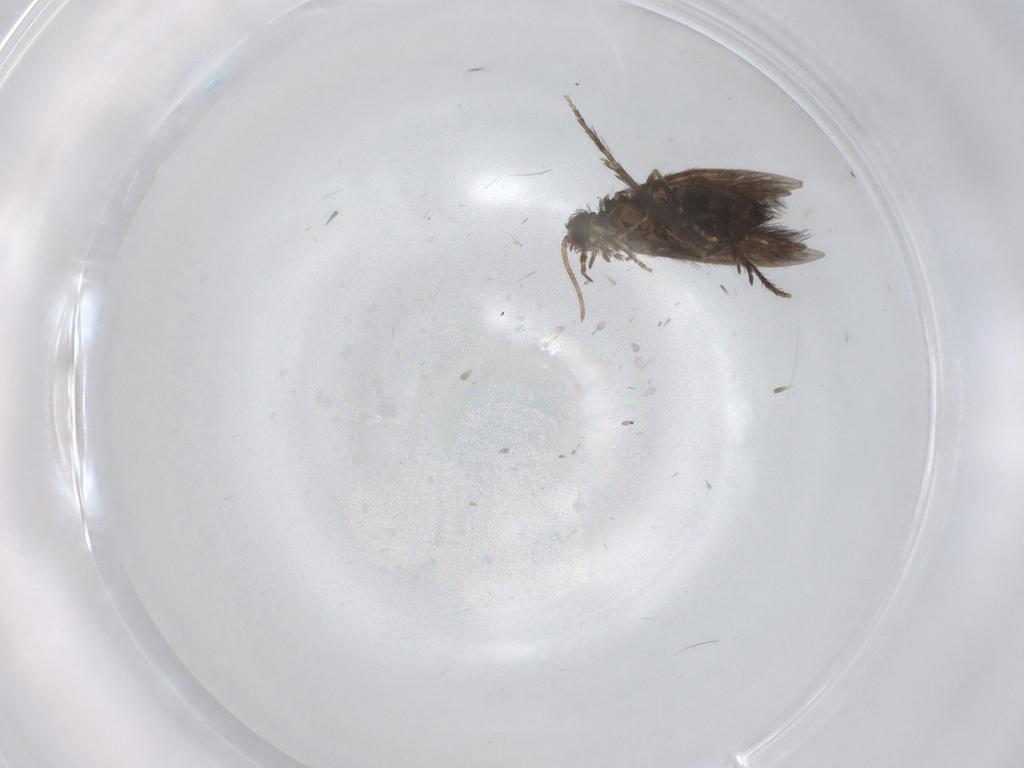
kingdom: Animalia
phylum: Arthropoda
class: Insecta
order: Trichoptera
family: Hydroptilidae
